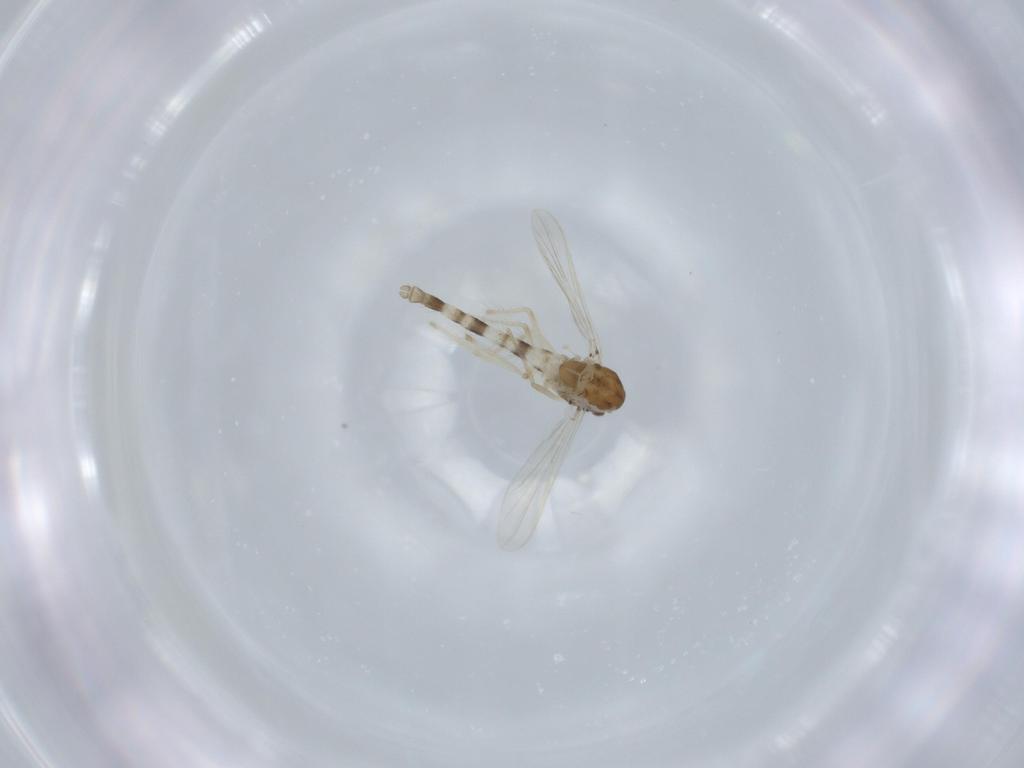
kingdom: Animalia
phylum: Arthropoda
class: Insecta
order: Diptera
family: Chironomidae
